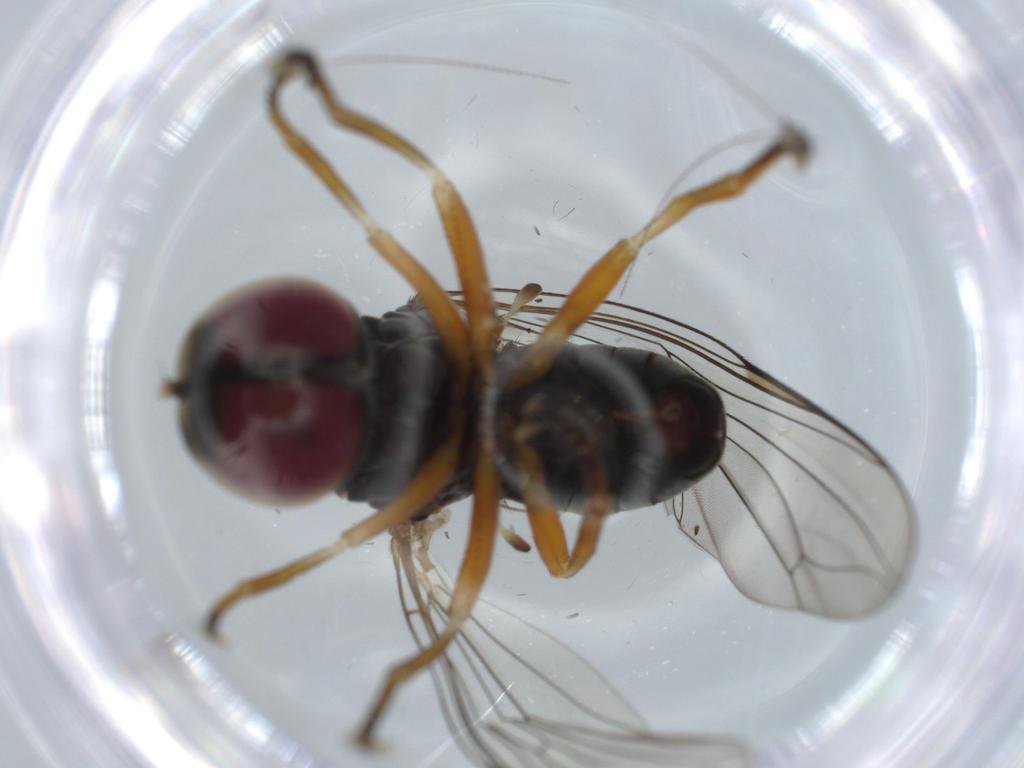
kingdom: Animalia
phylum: Arthropoda
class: Insecta
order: Diptera
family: Pipunculidae
